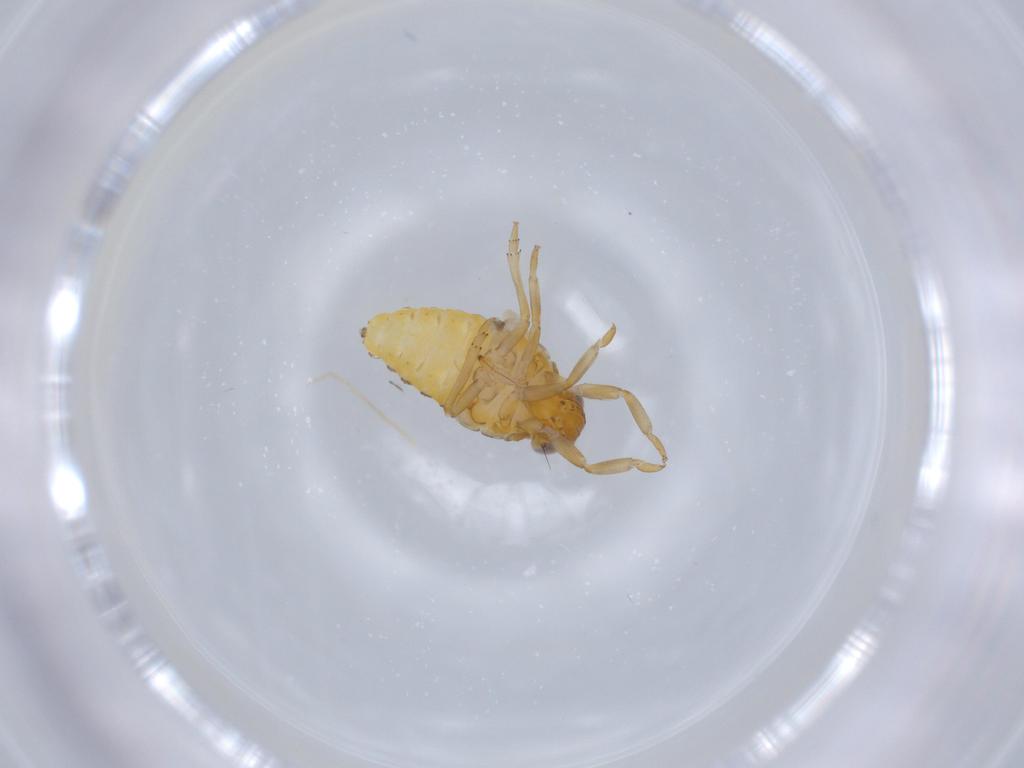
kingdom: Animalia
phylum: Arthropoda
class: Insecta
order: Hemiptera
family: Issidae
